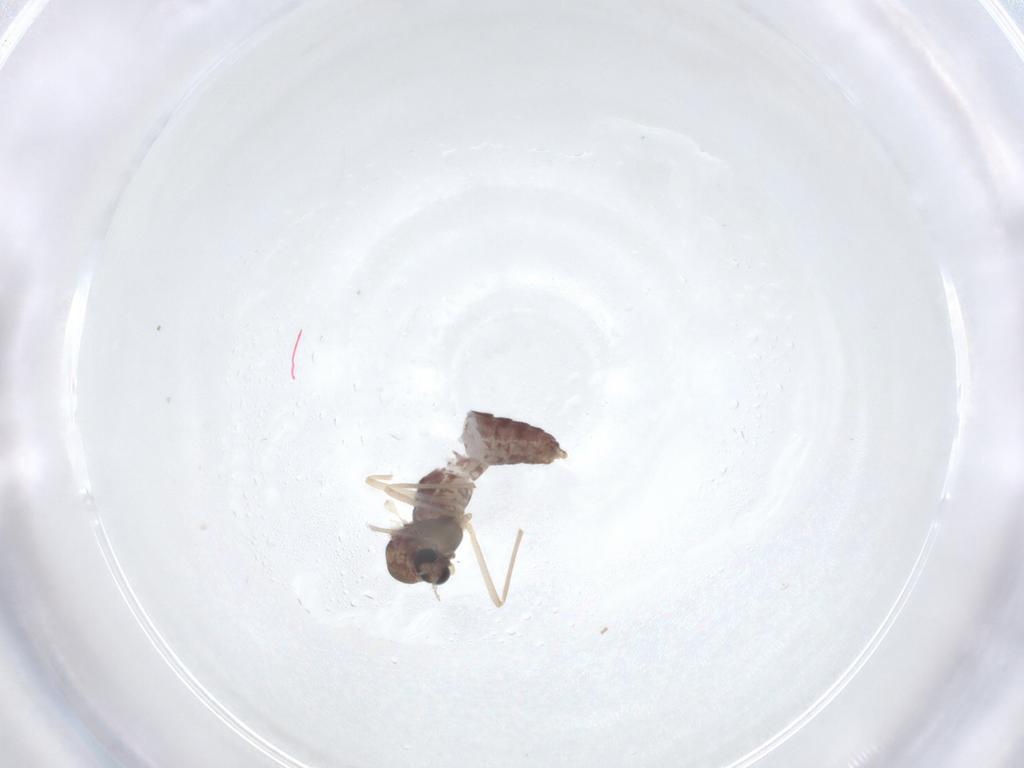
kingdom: Animalia
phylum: Arthropoda
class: Insecta
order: Diptera
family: Chironomidae
